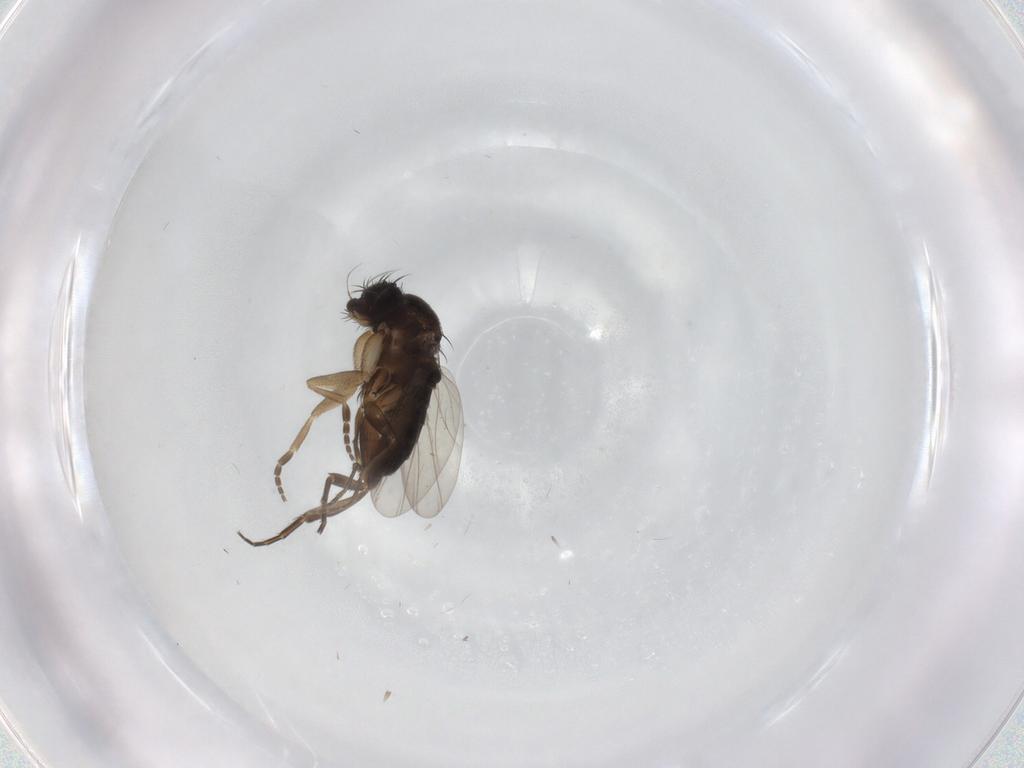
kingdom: Animalia
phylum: Arthropoda
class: Insecta
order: Diptera
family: Phoridae
